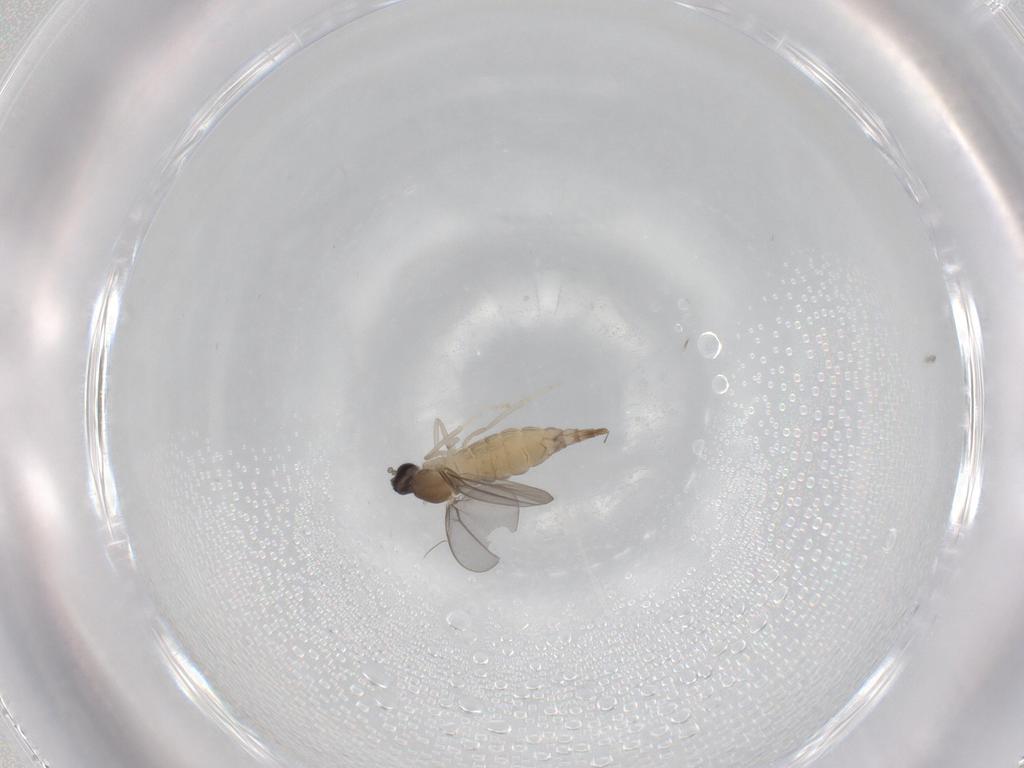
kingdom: Animalia
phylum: Arthropoda
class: Insecta
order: Diptera
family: Cecidomyiidae
